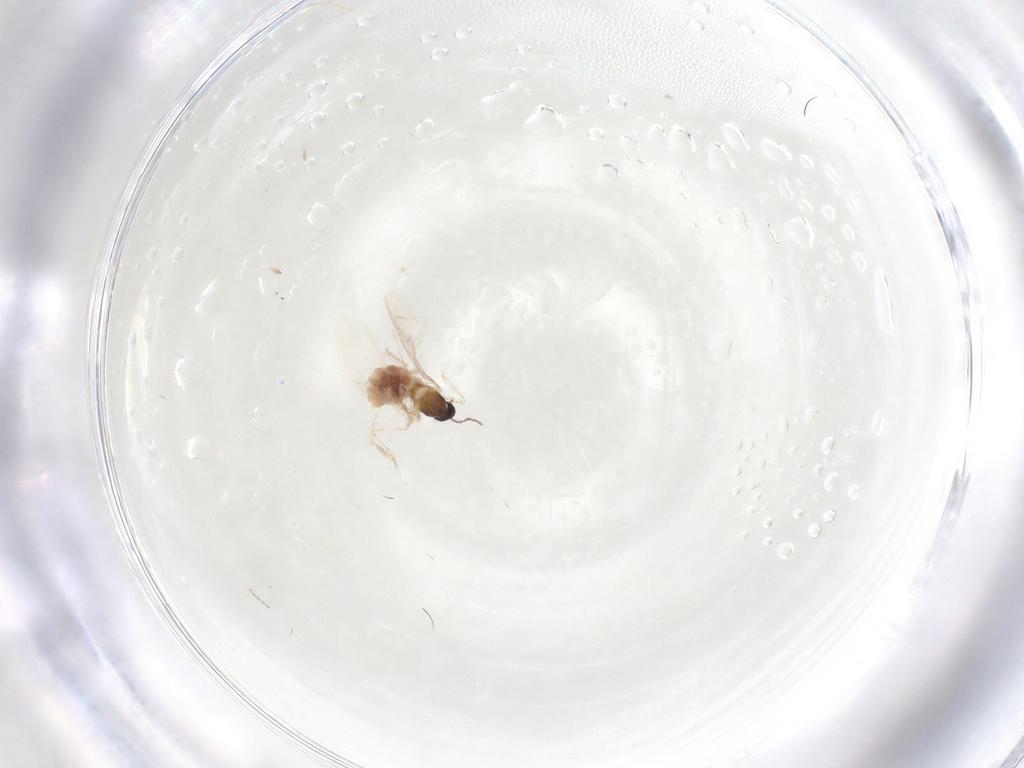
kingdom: Animalia
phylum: Arthropoda
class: Insecta
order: Diptera
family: Cecidomyiidae
